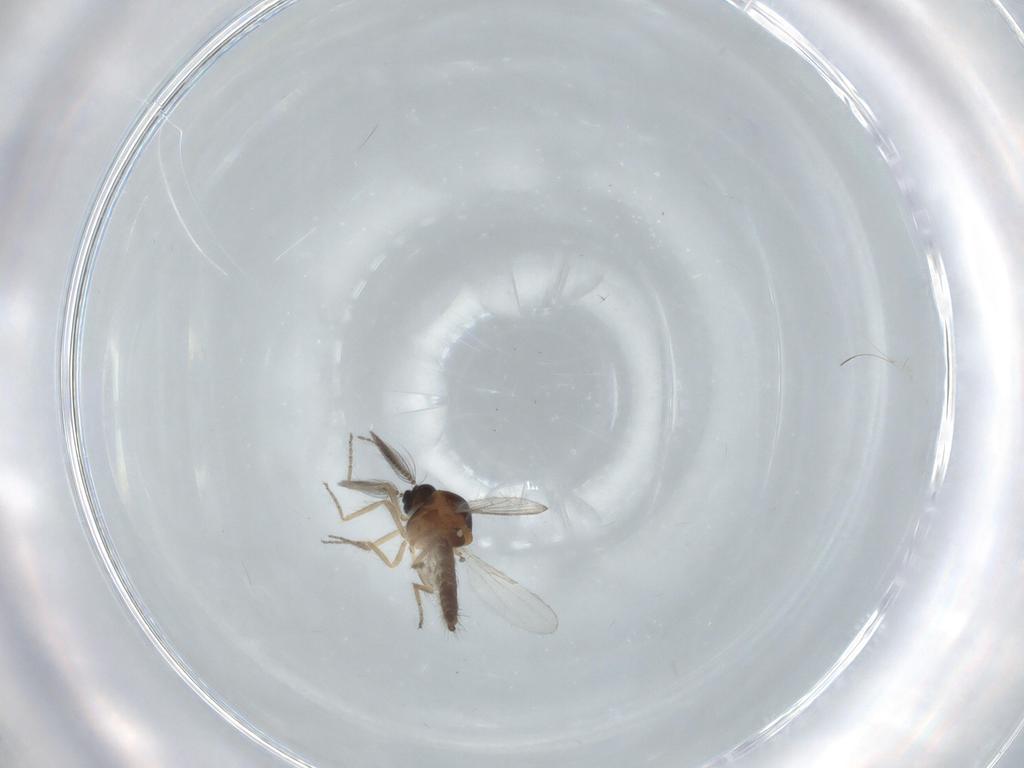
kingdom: Animalia
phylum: Arthropoda
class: Insecta
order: Diptera
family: Ceratopogonidae
